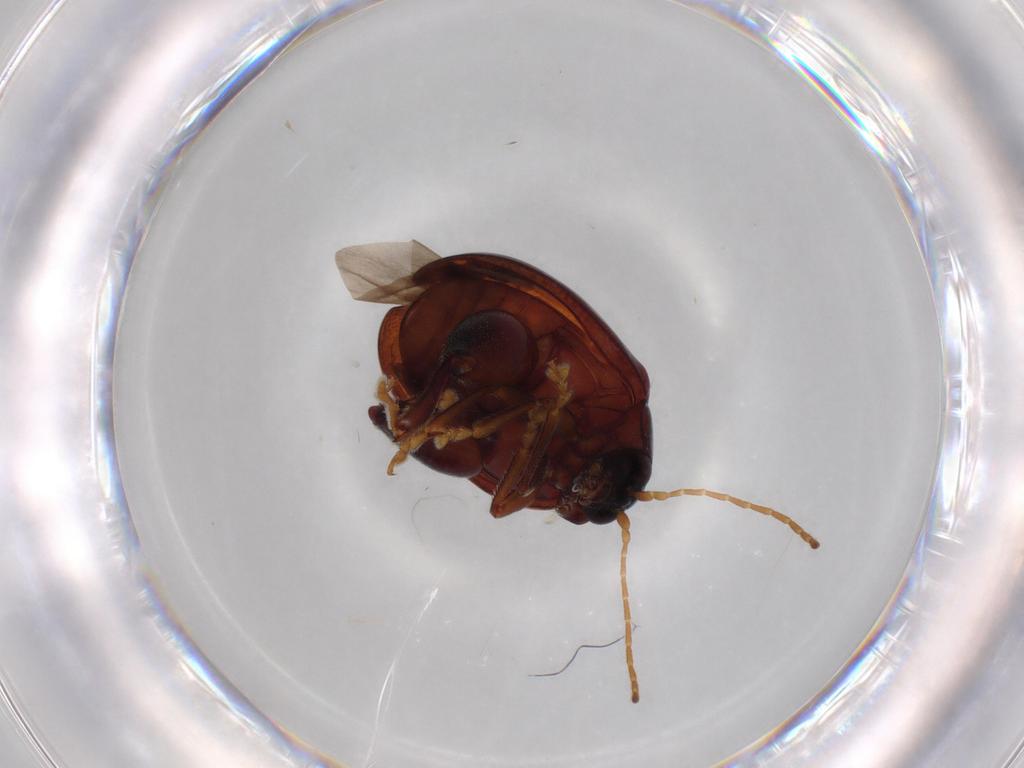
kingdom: Animalia
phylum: Arthropoda
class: Insecta
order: Coleoptera
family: Chrysomelidae
